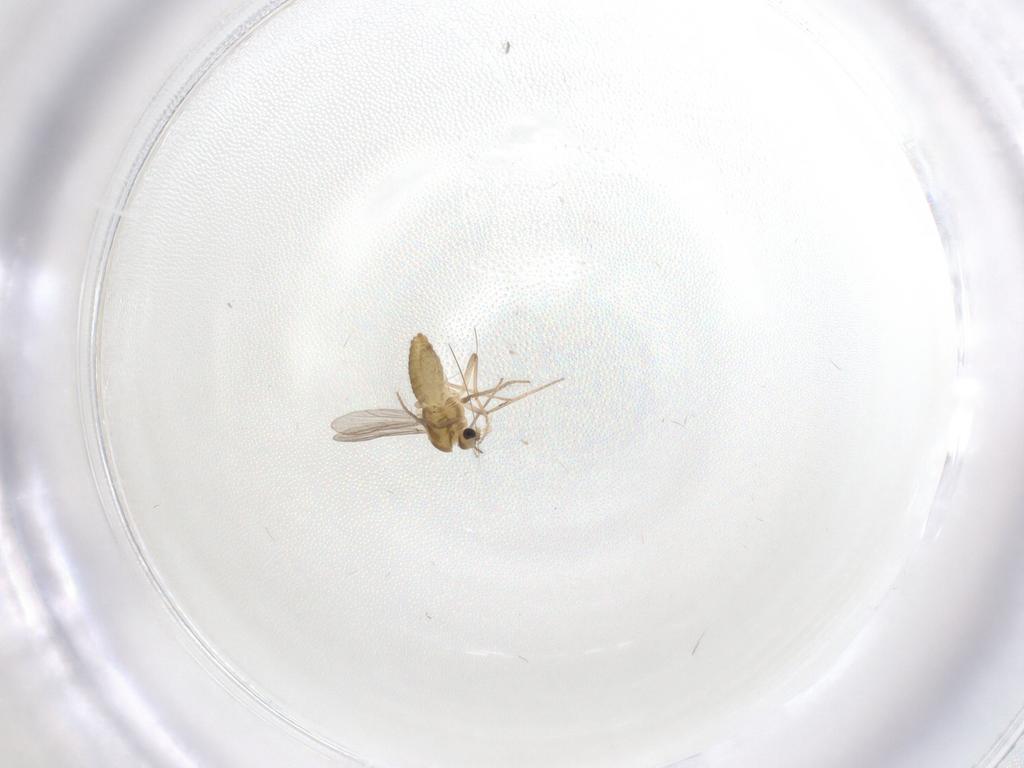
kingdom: Animalia
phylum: Arthropoda
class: Insecta
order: Diptera
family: Chironomidae
